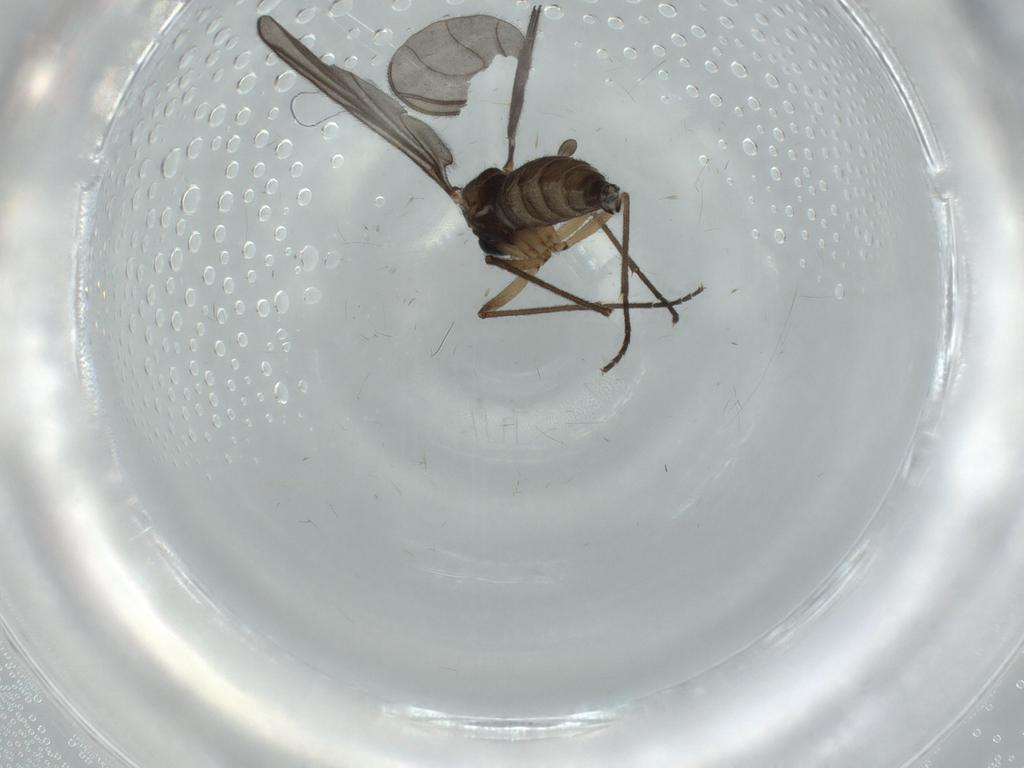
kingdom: Animalia
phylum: Arthropoda
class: Insecta
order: Diptera
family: Sciaridae
